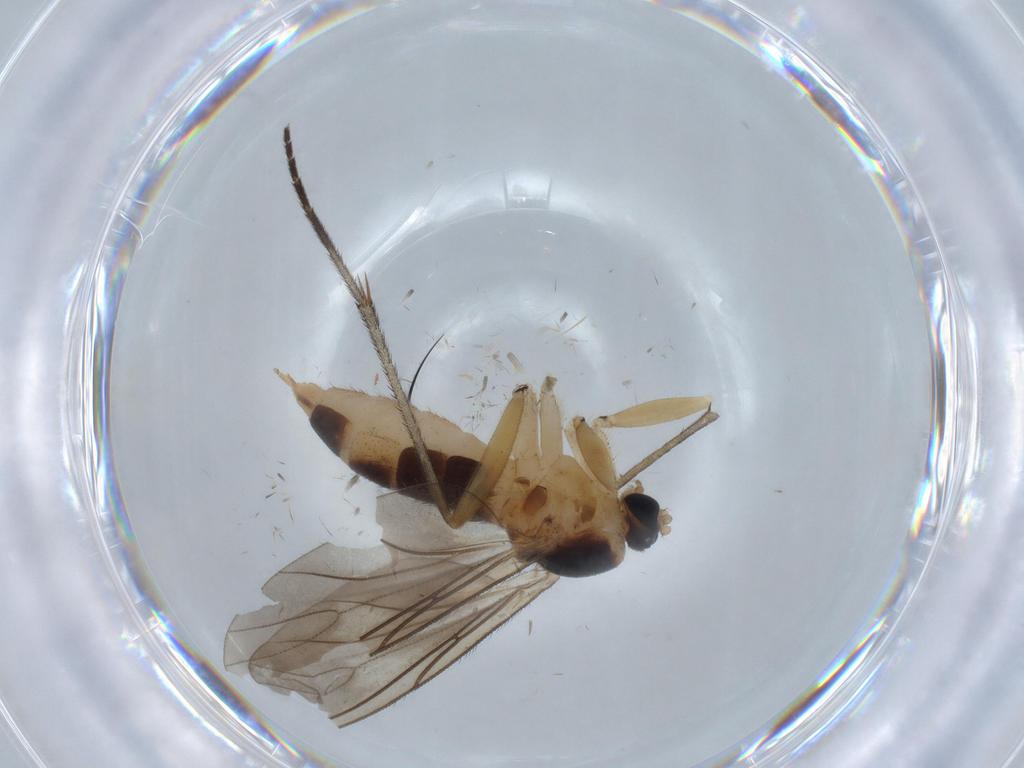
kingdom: Animalia
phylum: Arthropoda
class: Insecta
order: Diptera
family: Sciaridae
